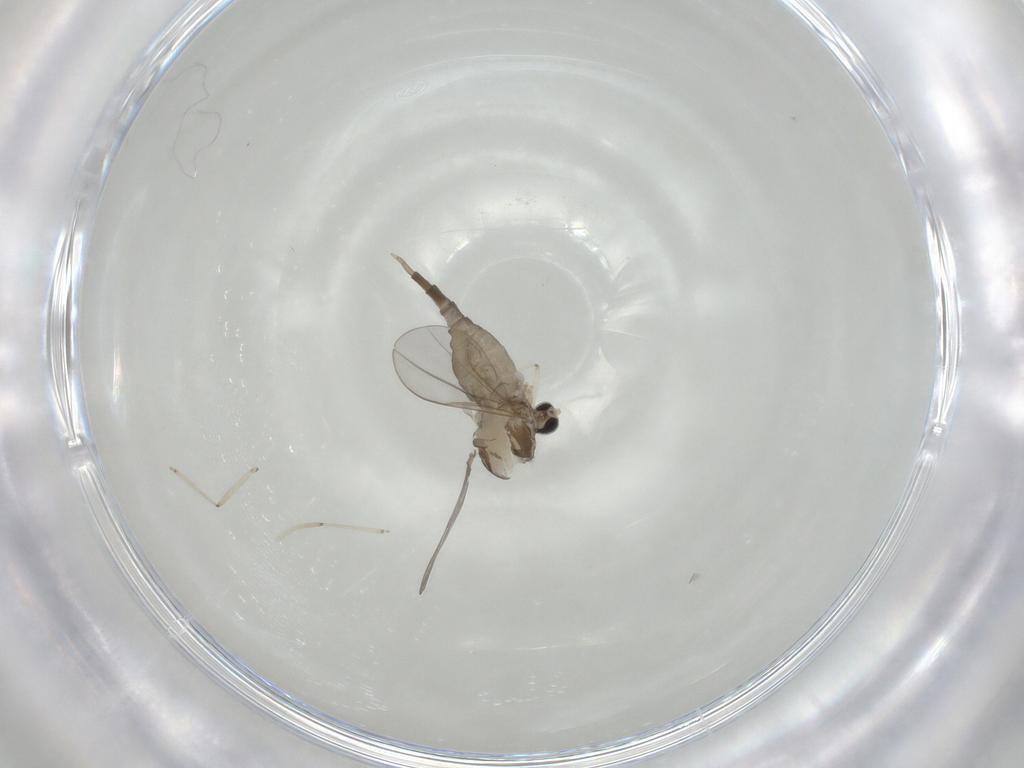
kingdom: Animalia
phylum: Arthropoda
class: Insecta
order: Diptera
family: Cecidomyiidae
